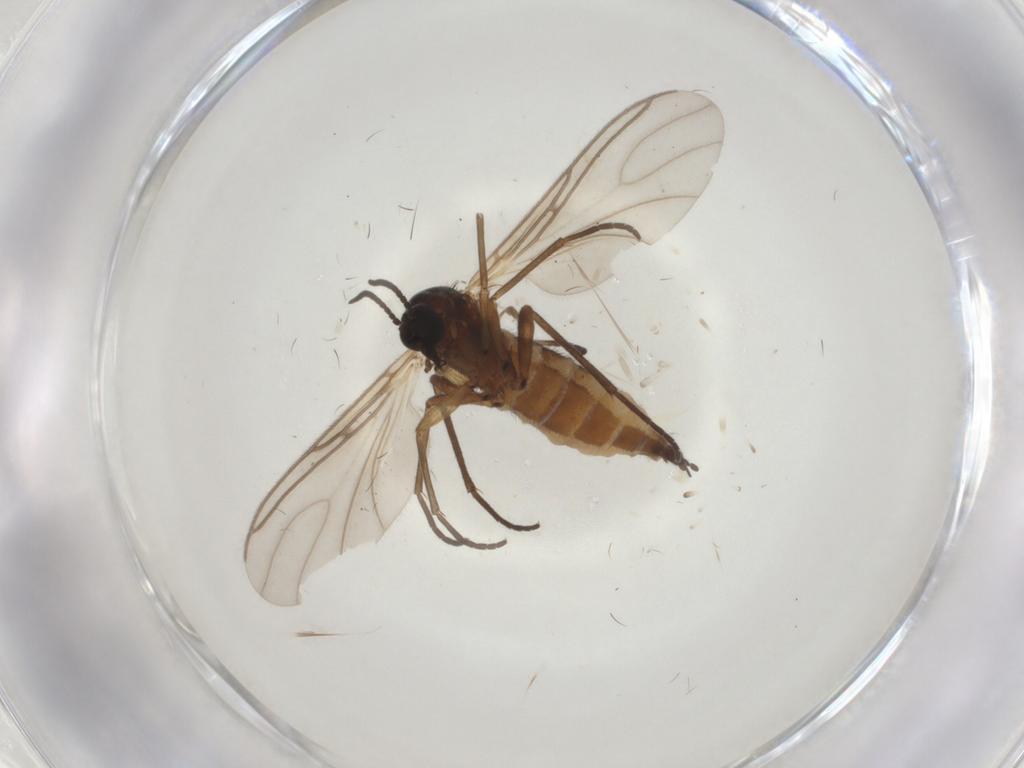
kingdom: Animalia
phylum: Arthropoda
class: Insecta
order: Diptera
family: Sciaridae
